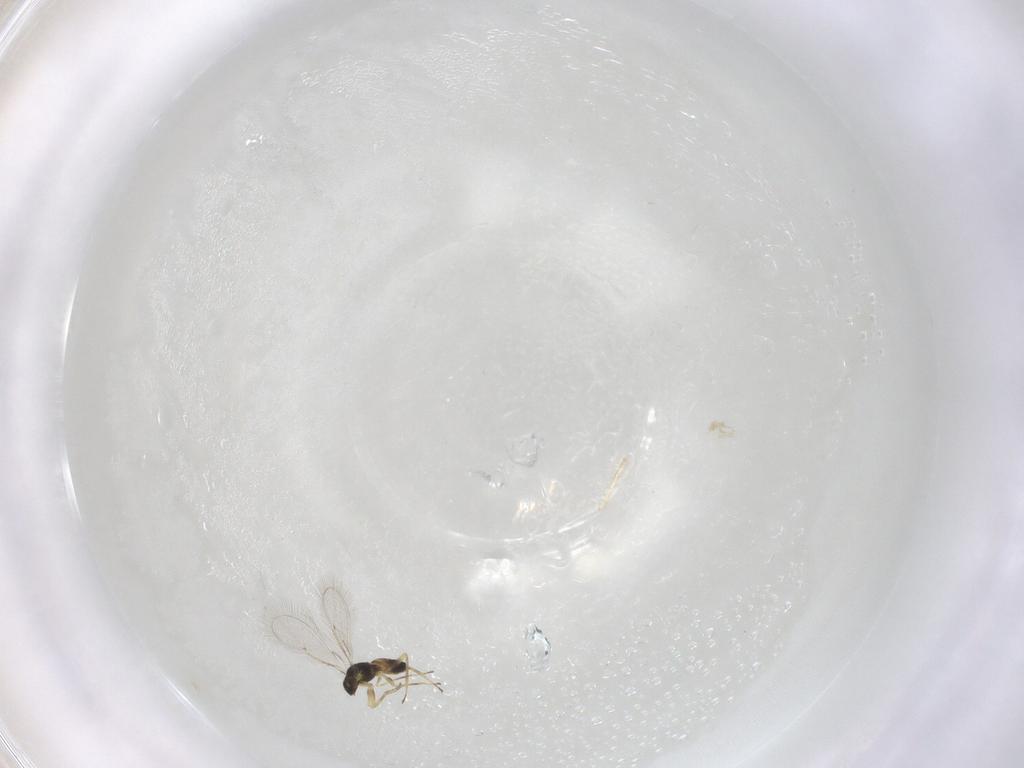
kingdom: Animalia
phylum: Arthropoda
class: Insecta
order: Hymenoptera
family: Eulophidae
